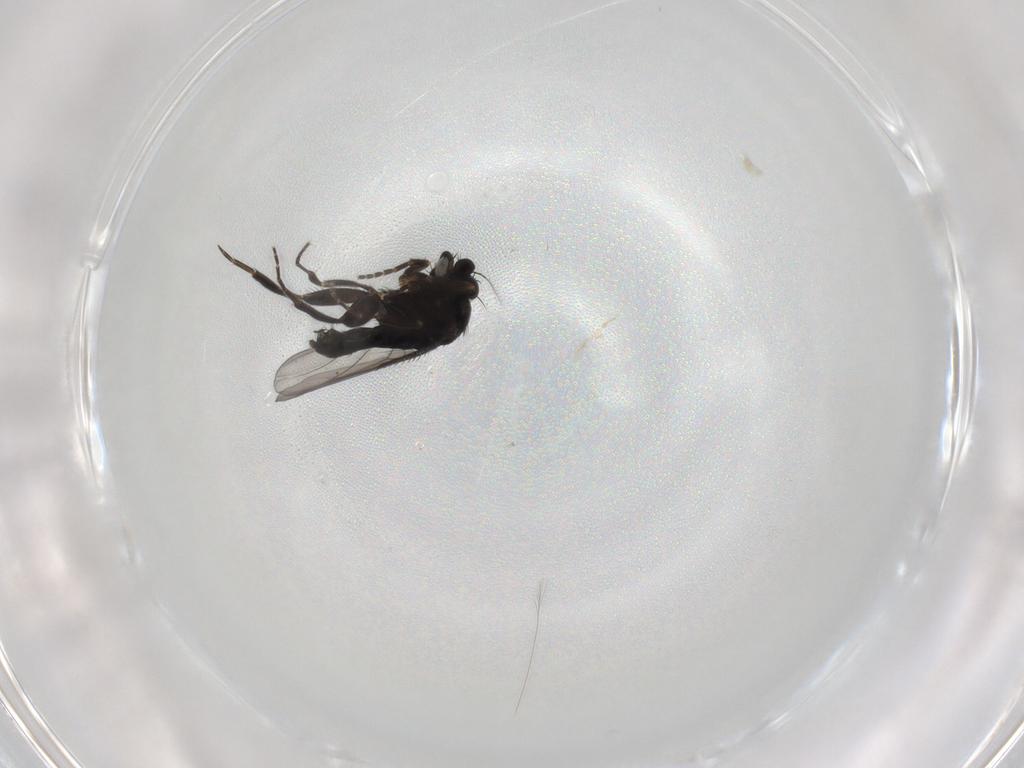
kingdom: Animalia
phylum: Arthropoda
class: Insecta
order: Diptera
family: Phoridae
